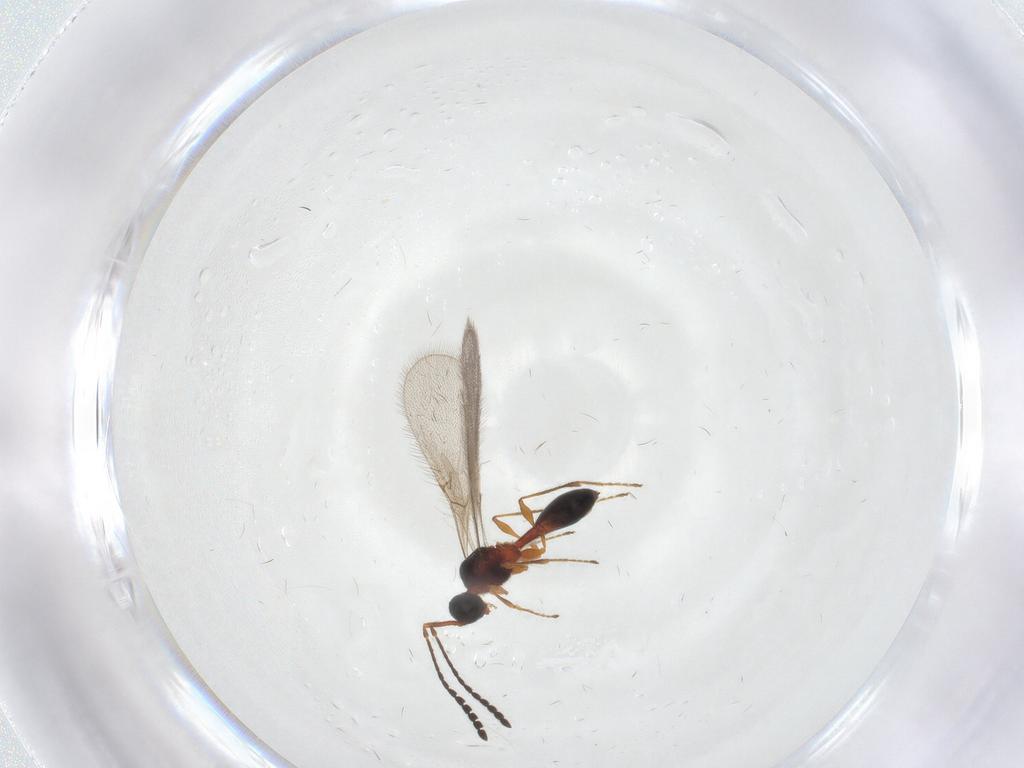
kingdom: Animalia
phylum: Arthropoda
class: Insecta
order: Hymenoptera
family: Diapriidae
